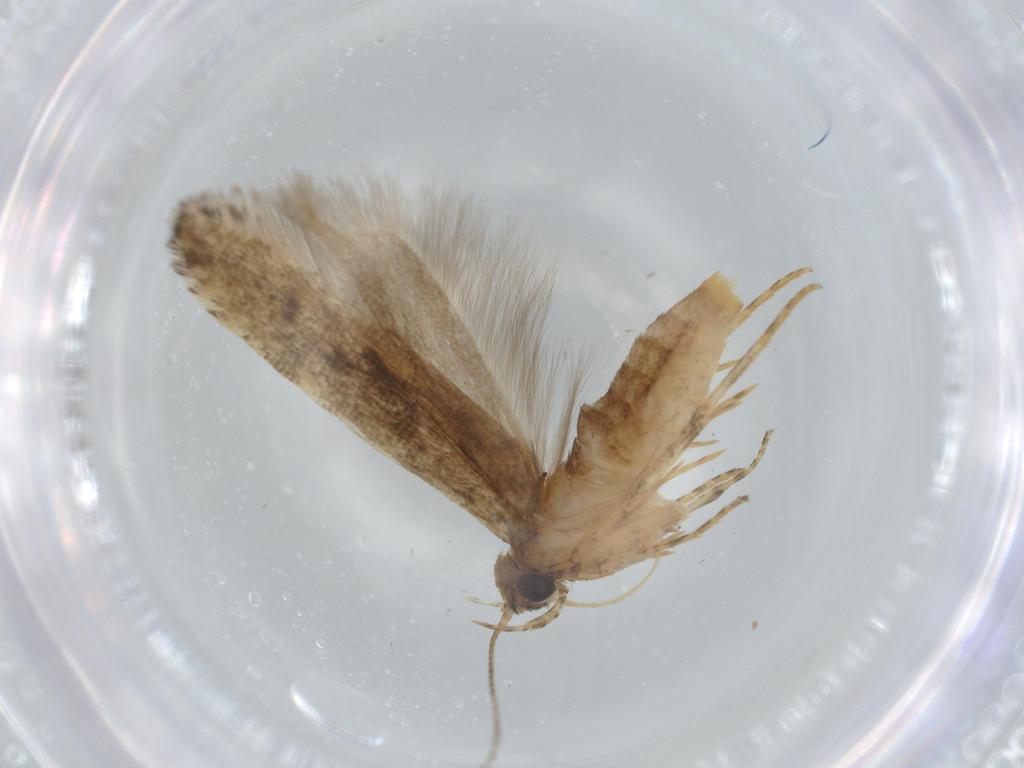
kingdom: Animalia
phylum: Arthropoda
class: Insecta
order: Lepidoptera
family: Gelechiidae
